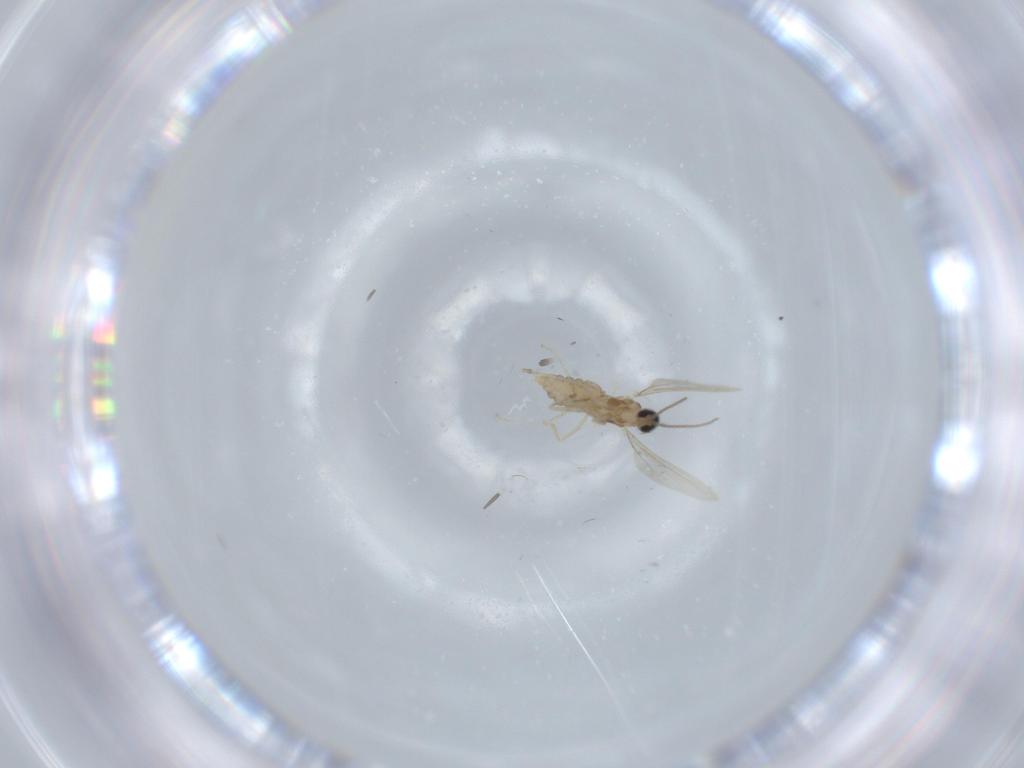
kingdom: Animalia
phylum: Arthropoda
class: Insecta
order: Diptera
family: Cecidomyiidae
